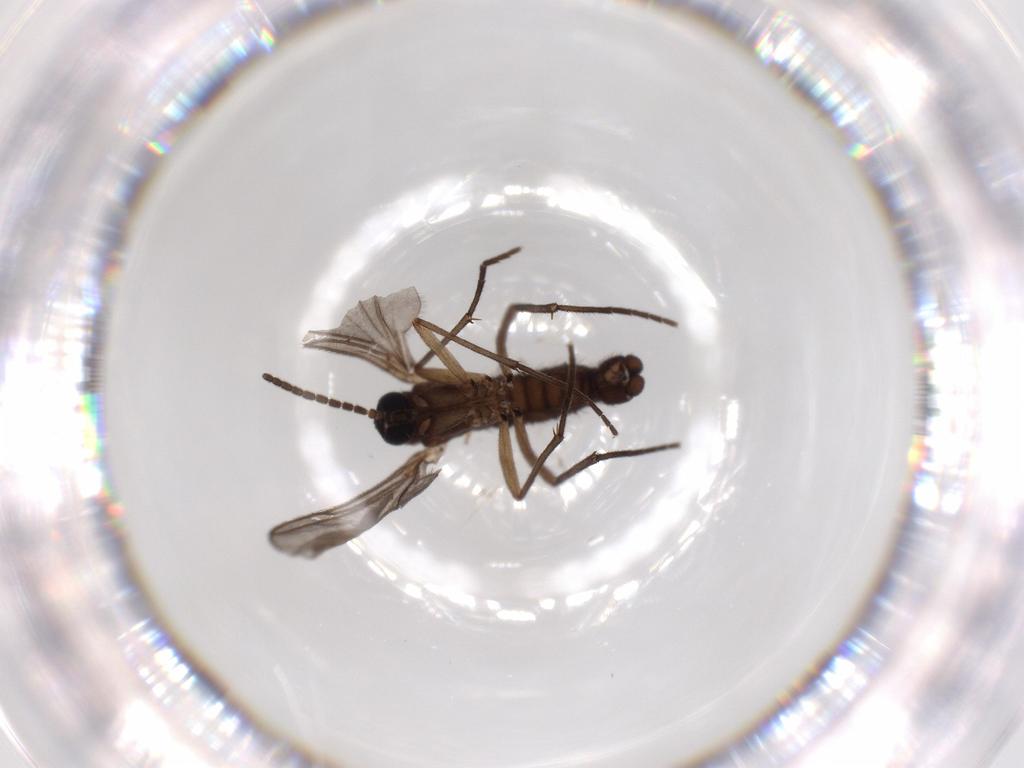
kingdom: Animalia
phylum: Arthropoda
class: Insecta
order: Diptera
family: Sciaridae
